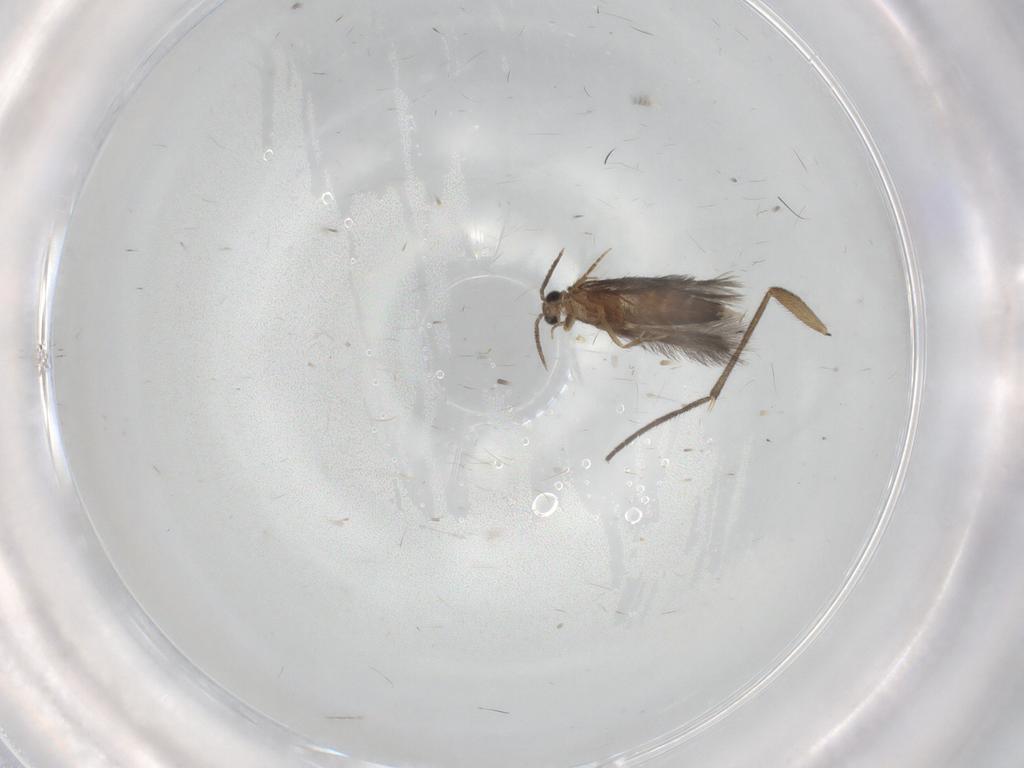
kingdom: Animalia
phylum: Arthropoda
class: Insecta
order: Trichoptera
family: Hydroptilidae
